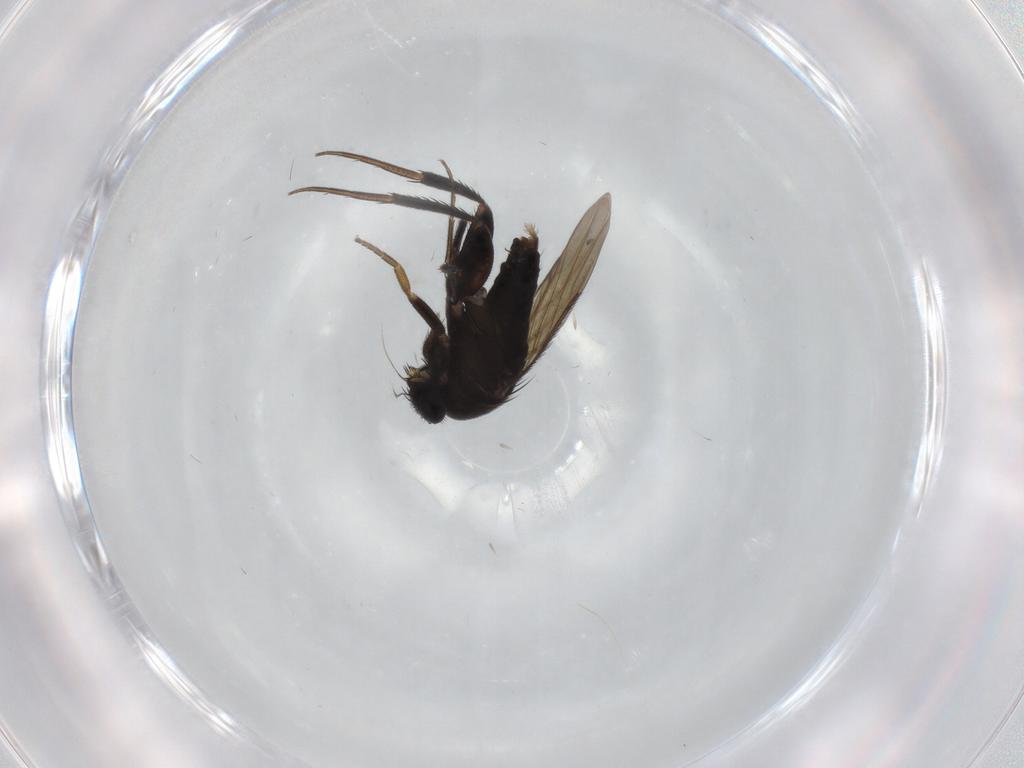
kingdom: Animalia
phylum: Arthropoda
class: Insecta
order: Diptera
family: Phoridae
